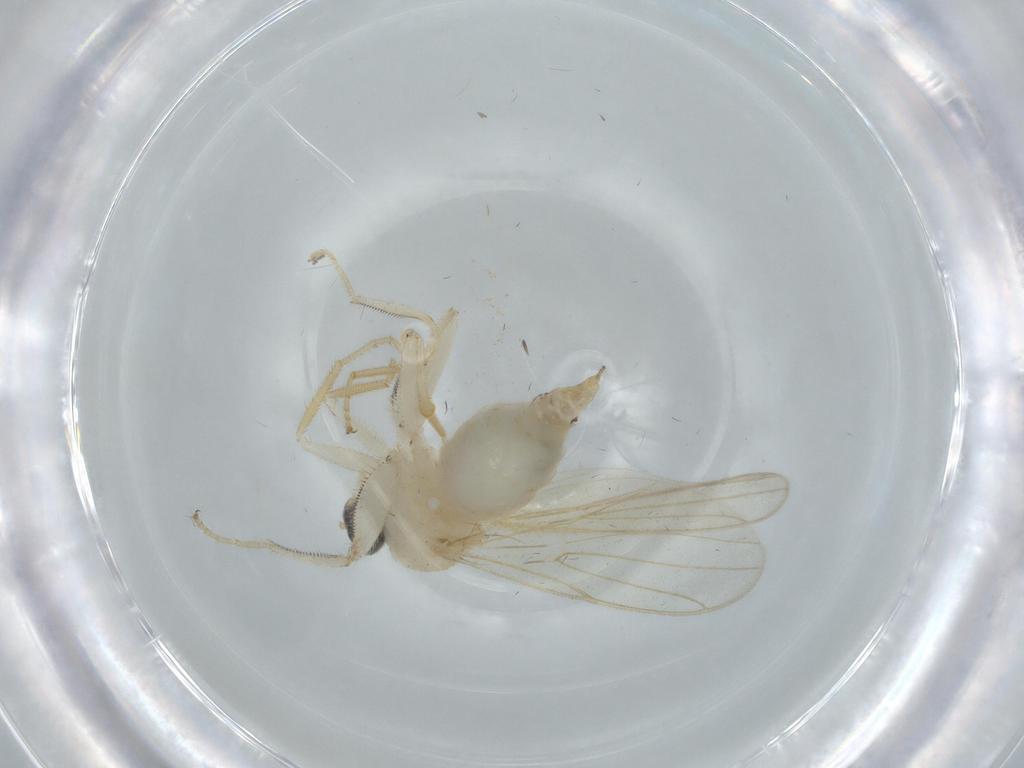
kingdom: Animalia
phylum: Arthropoda
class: Insecta
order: Diptera
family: Hybotidae
